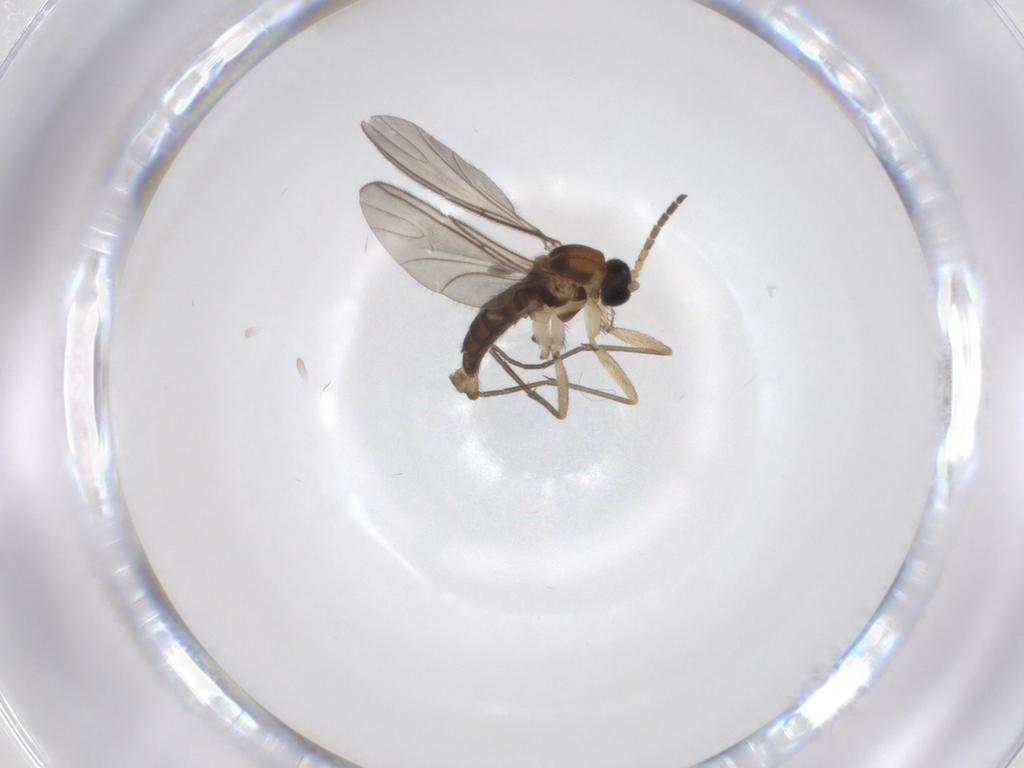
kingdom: Animalia
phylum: Arthropoda
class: Insecta
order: Diptera
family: Sciaridae
